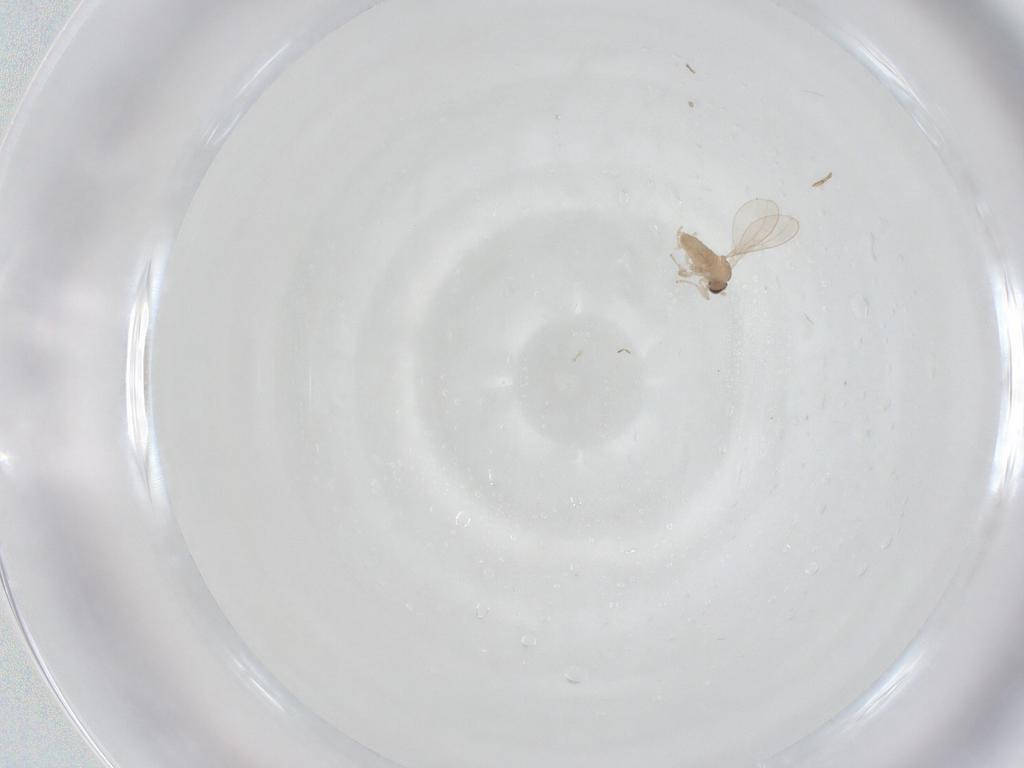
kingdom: Animalia
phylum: Arthropoda
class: Insecta
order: Diptera
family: Cecidomyiidae
